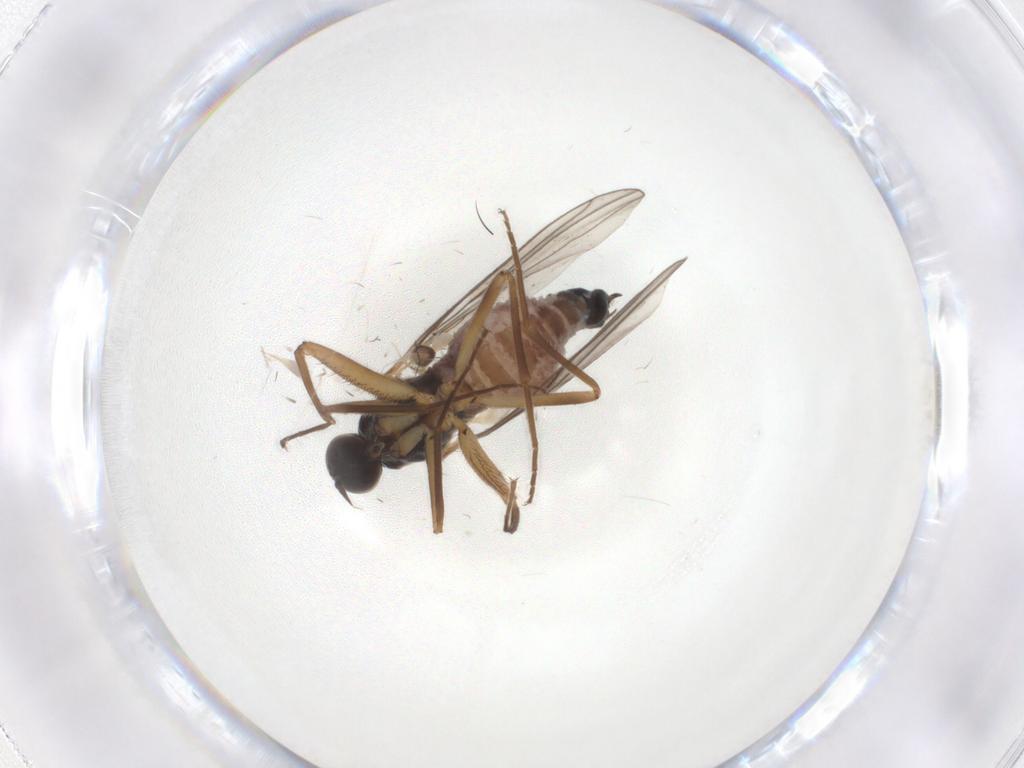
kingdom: Animalia
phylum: Arthropoda
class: Insecta
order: Diptera
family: Hybotidae
